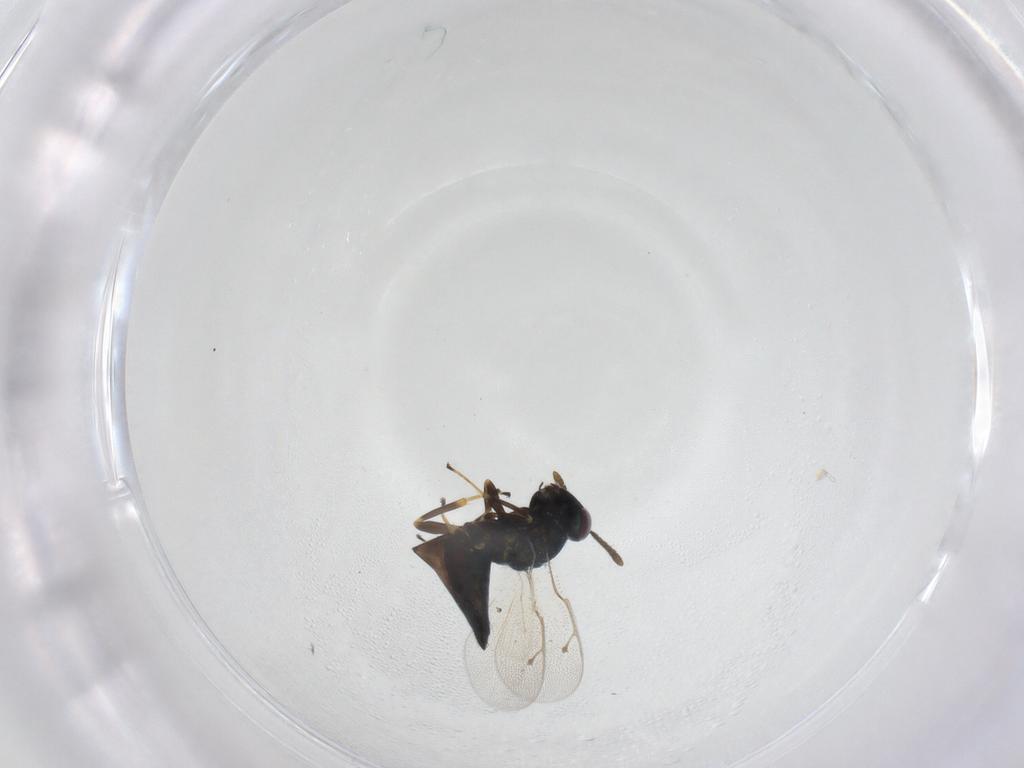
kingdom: Animalia
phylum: Arthropoda
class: Insecta
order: Hymenoptera
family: Pteromalidae
